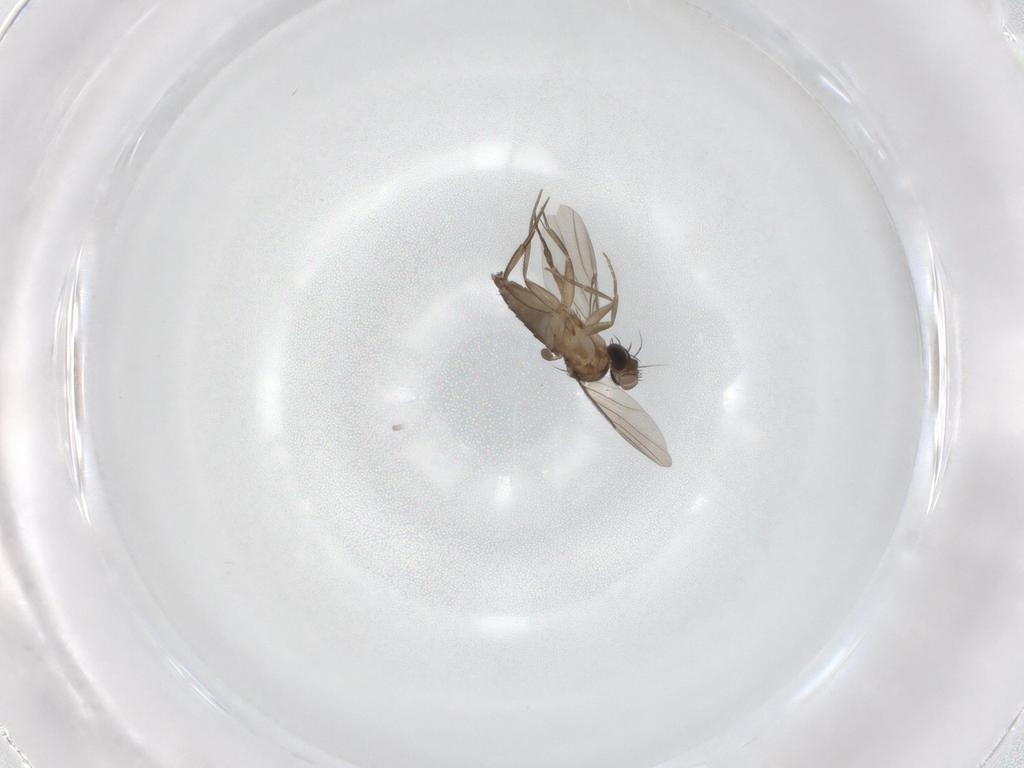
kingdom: Animalia
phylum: Arthropoda
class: Insecta
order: Diptera
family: Phoridae
